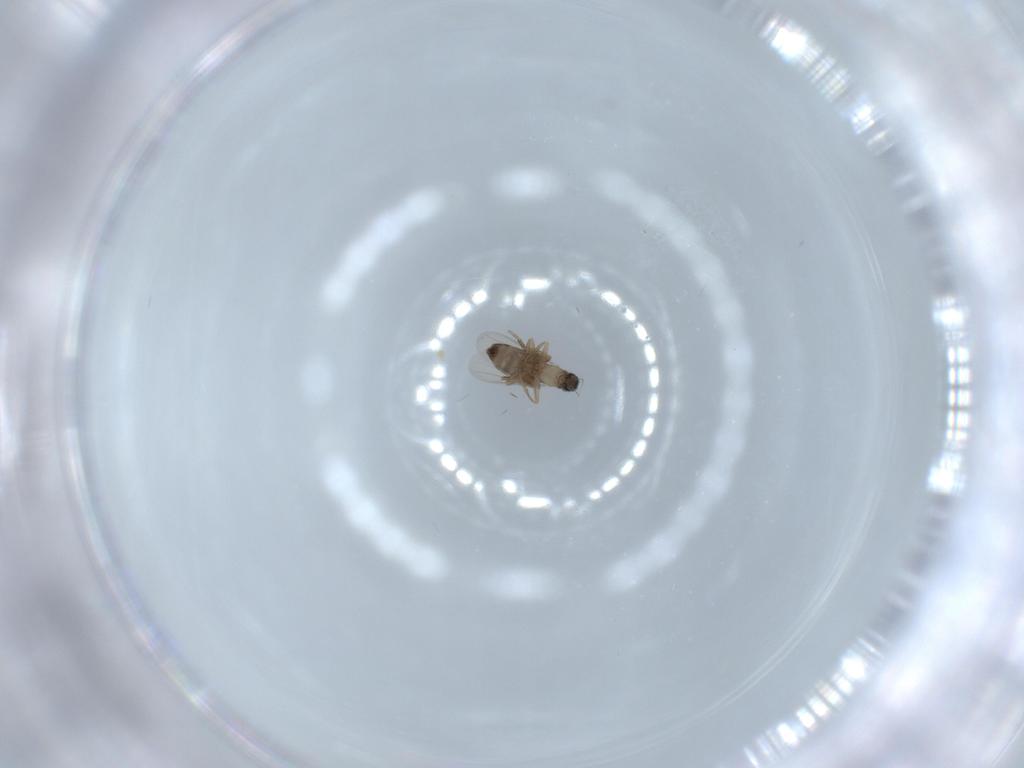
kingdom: Animalia
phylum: Arthropoda
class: Insecta
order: Diptera
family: Phoridae
